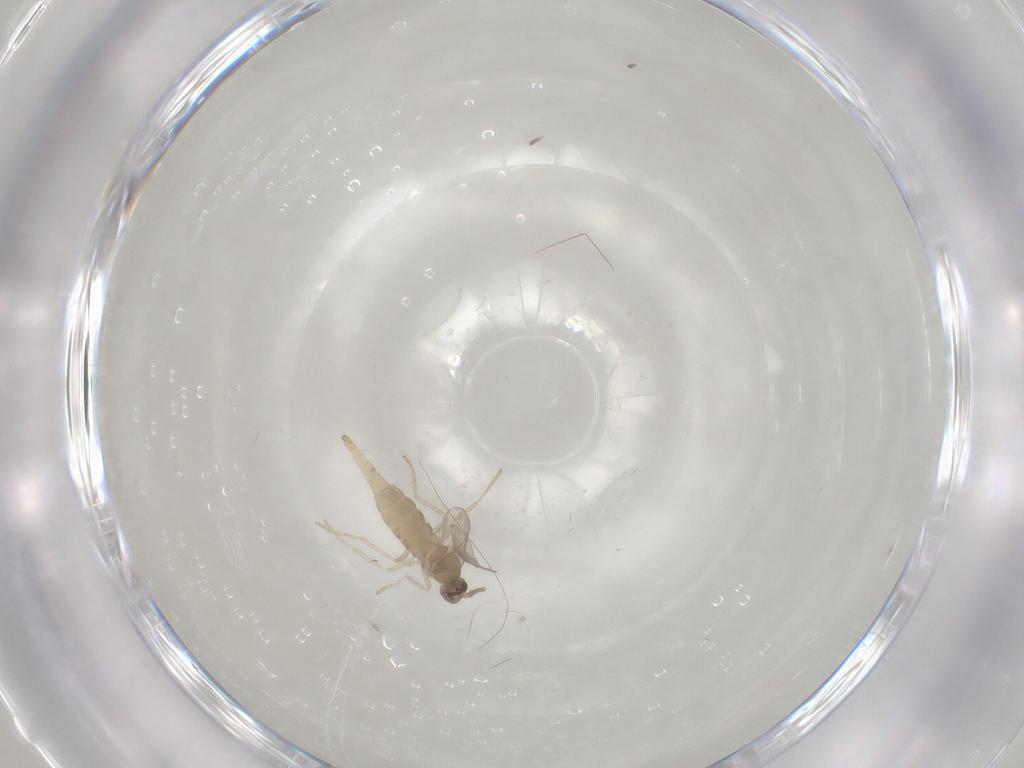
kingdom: Animalia
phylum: Arthropoda
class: Insecta
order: Diptera
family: Cecidomyiidae
